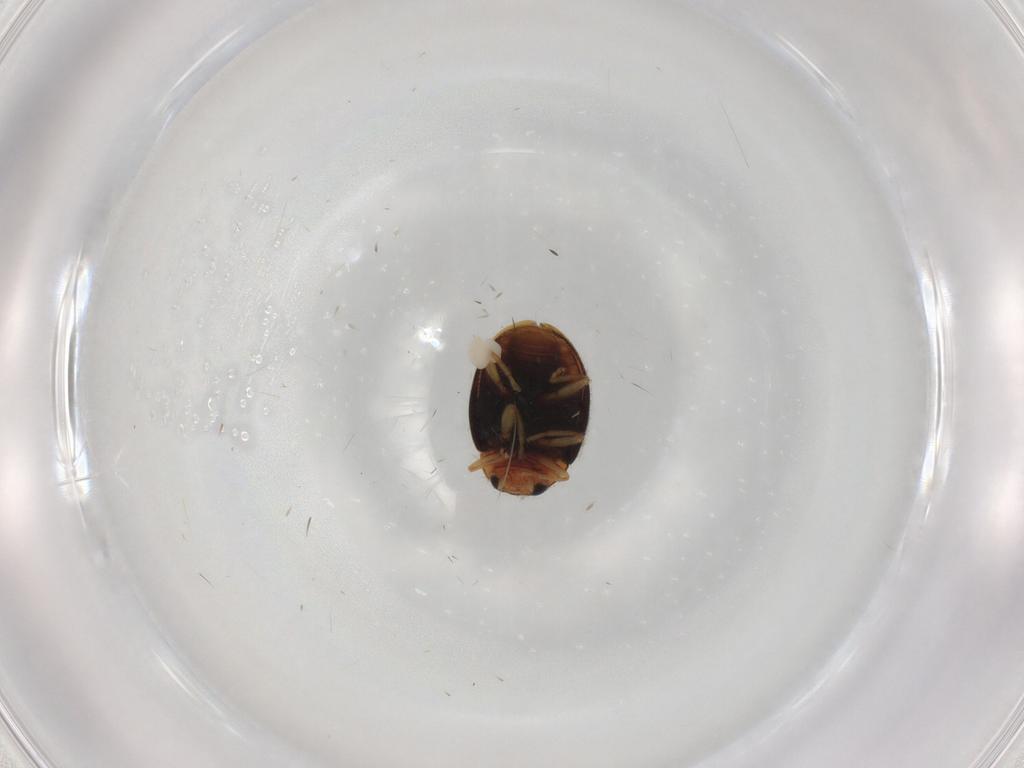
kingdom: Animalia
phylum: Arthropoda
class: Insecta
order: Coleoptera
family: Coccinellidae
